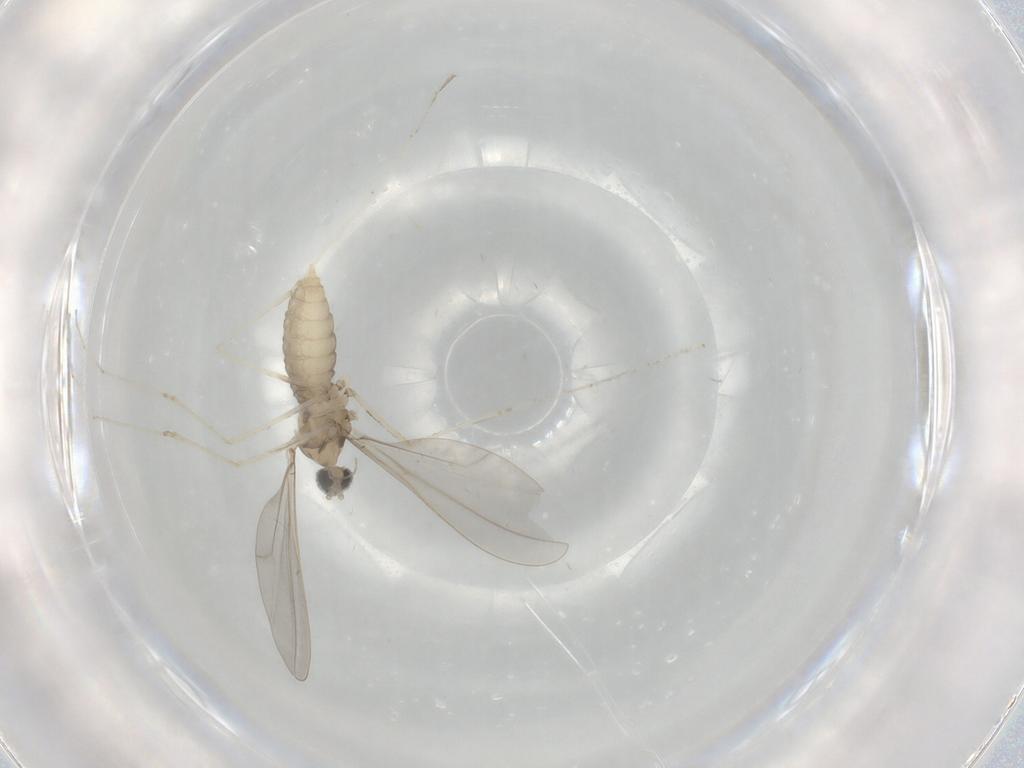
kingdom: Animalia
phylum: Arthropoda
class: Insecta
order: Diptera
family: Cecidomyiidae
